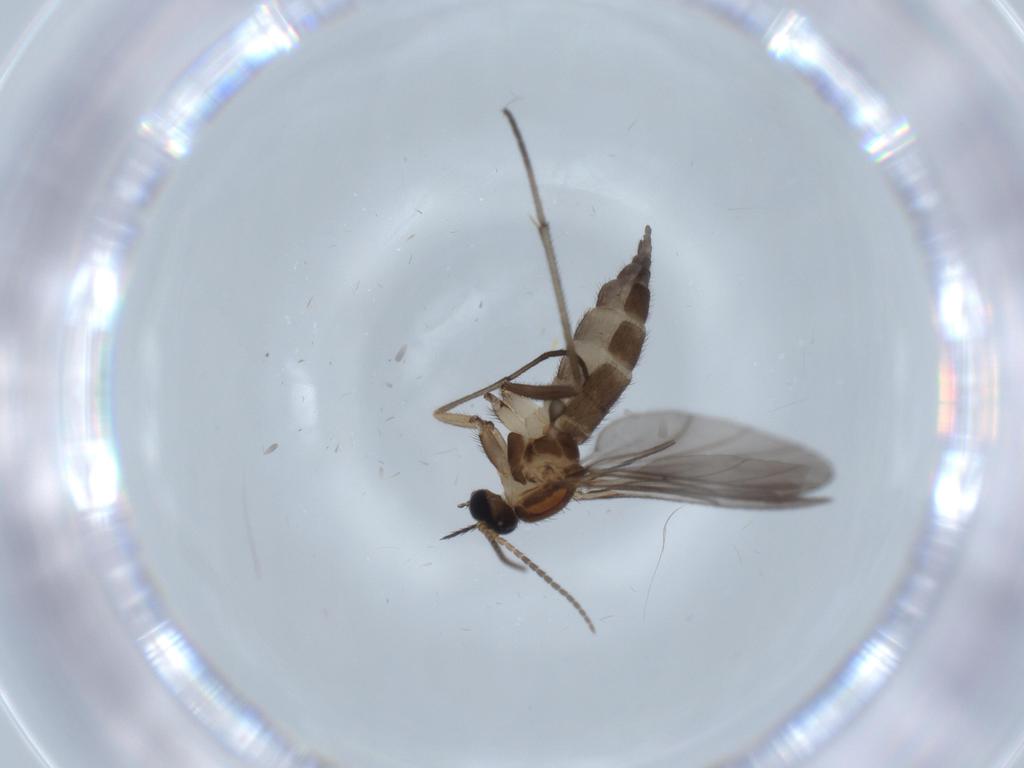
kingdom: Animalia
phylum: Arthropoda
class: Insecta
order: Diptera
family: Sciaridae
